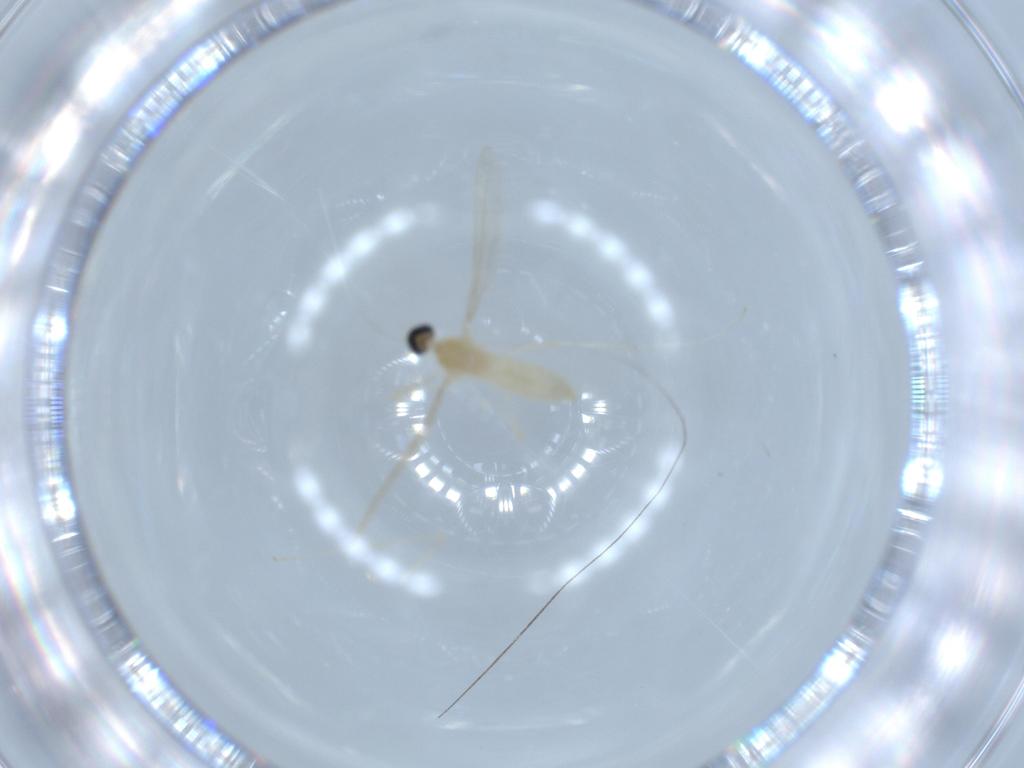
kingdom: Animalia
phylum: Arthropoda
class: Insecta
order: Diptera
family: Cecidomyiidae
